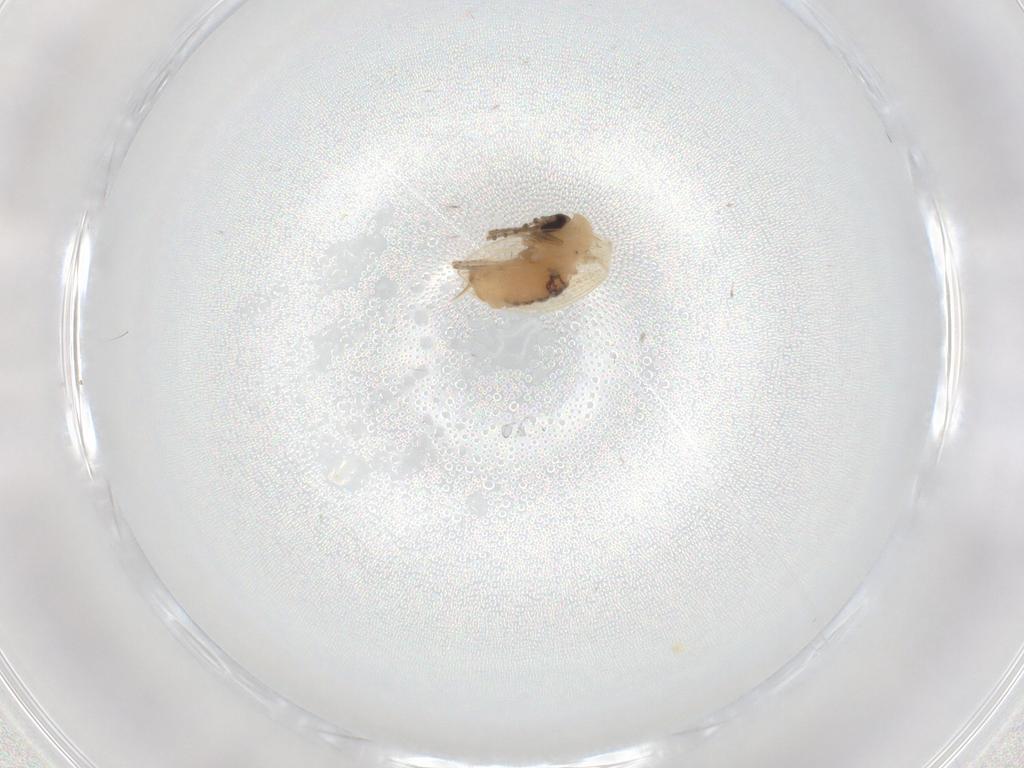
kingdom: Animalia
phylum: Arthropoda
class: Insecta
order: Diptera
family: Psychodidae
